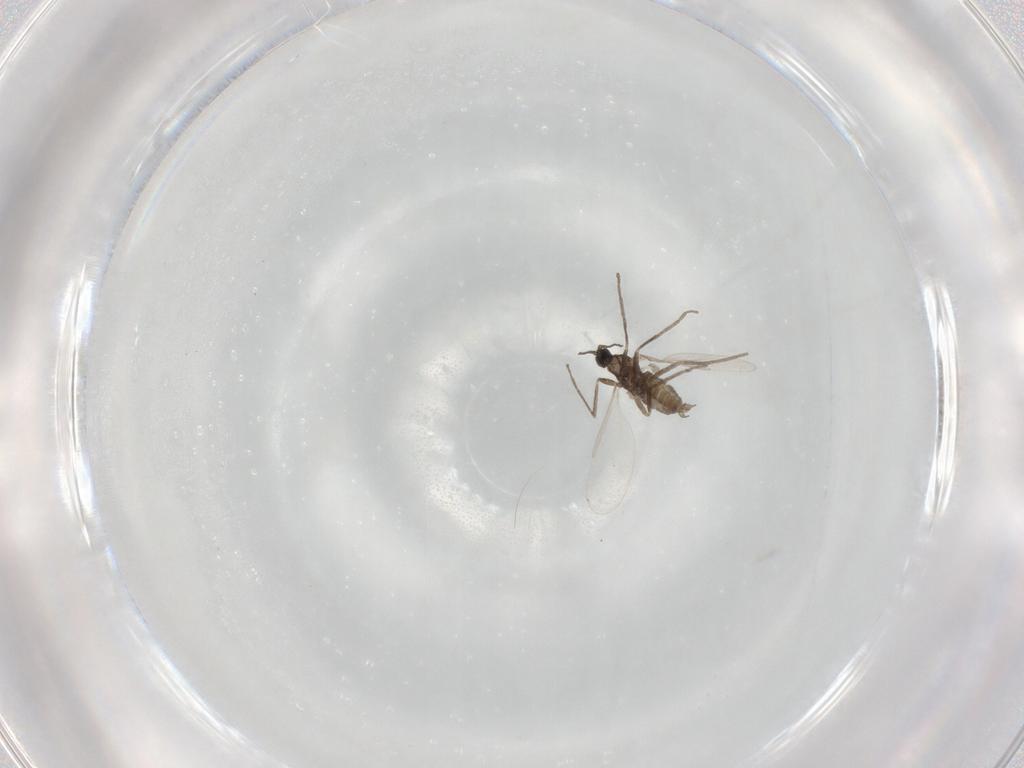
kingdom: Animalia
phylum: Arthropoda
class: Insecta
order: Diptera
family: Cecidomyiidae
